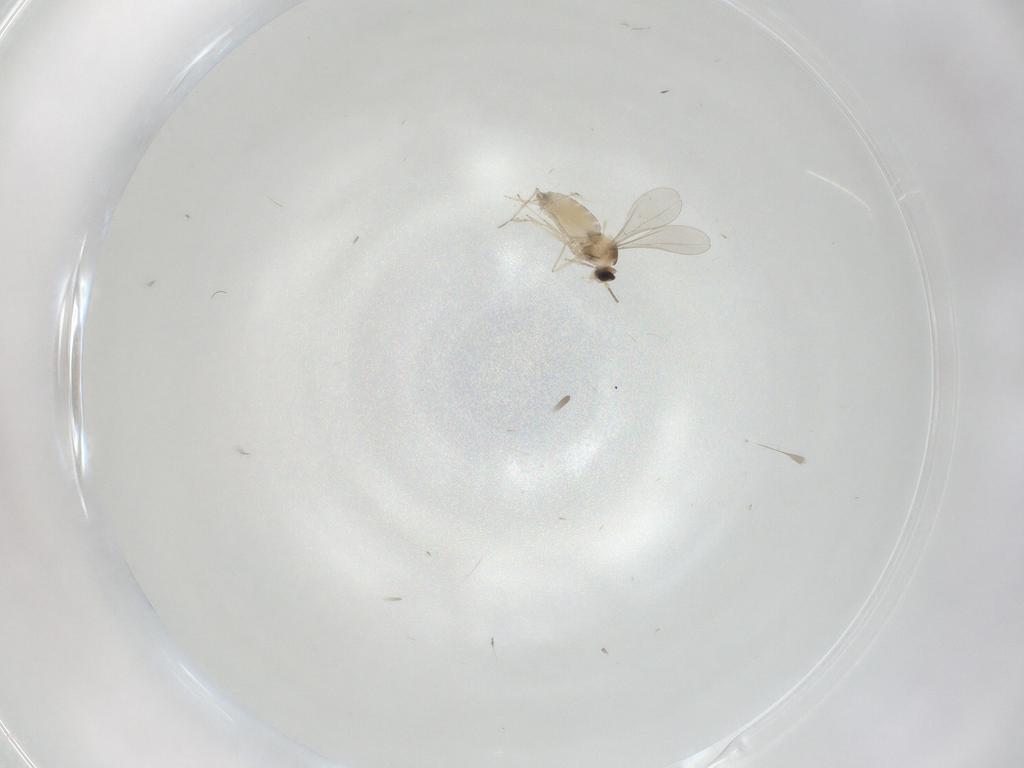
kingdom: Animalia
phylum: Arthropoda
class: Insecta
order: Diptera
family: Cecidomyiidae
